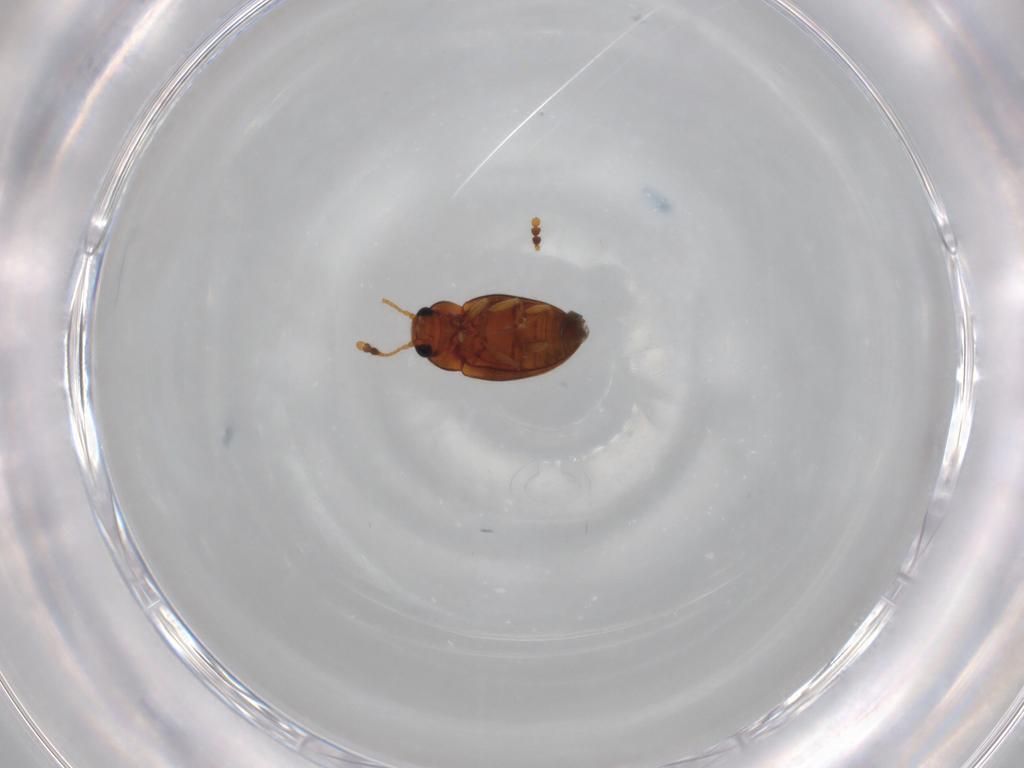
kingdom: Animalia
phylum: Arthropoda
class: Insecta
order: Coleoptera
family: Erotylidae
